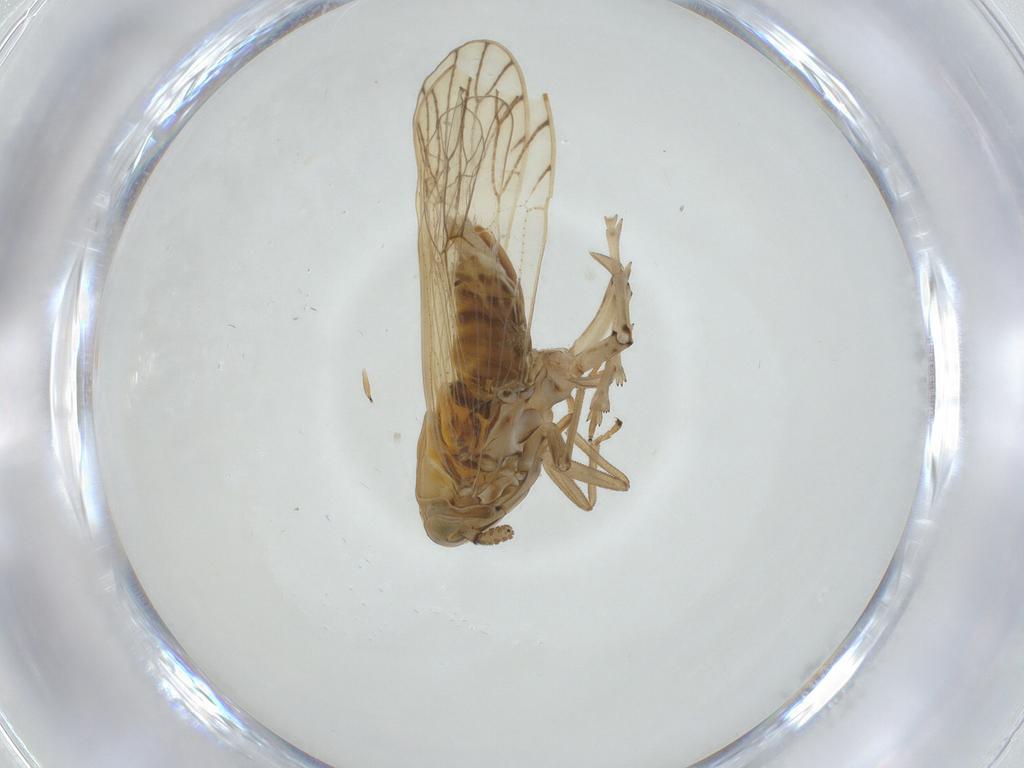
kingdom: Animalia
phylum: Arthropoda
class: Insecta
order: Hemiptera
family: Delphacidae
